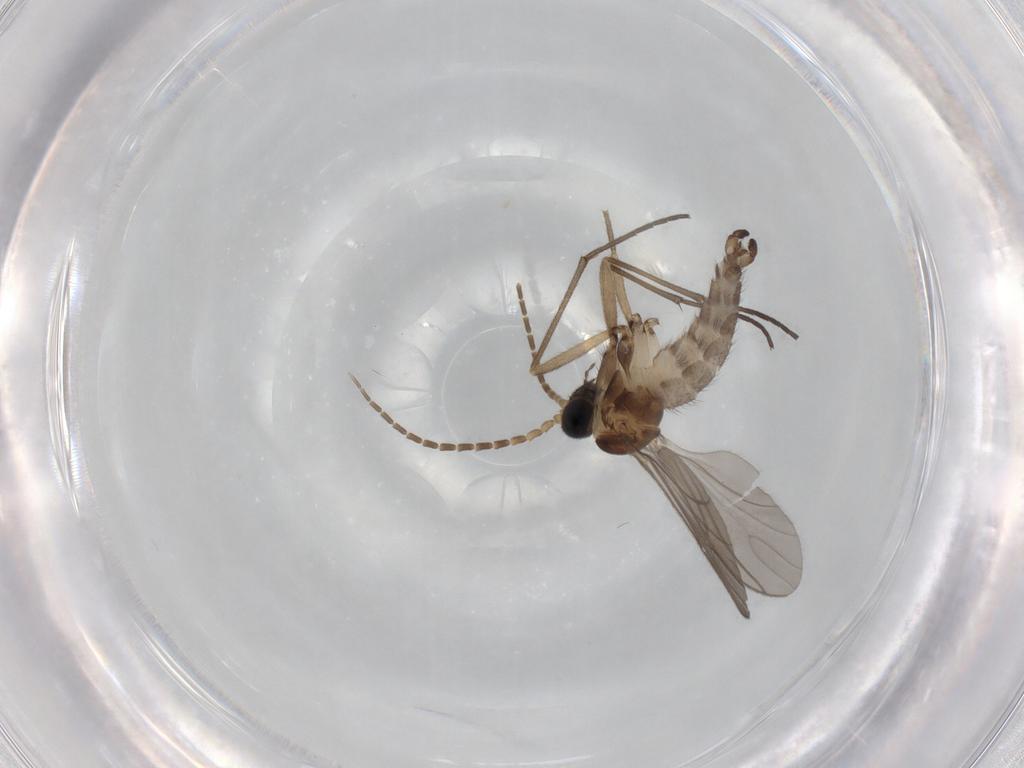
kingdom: Animalia
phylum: Arthropoda
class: Insecta
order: Diptera
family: Sciaridae
